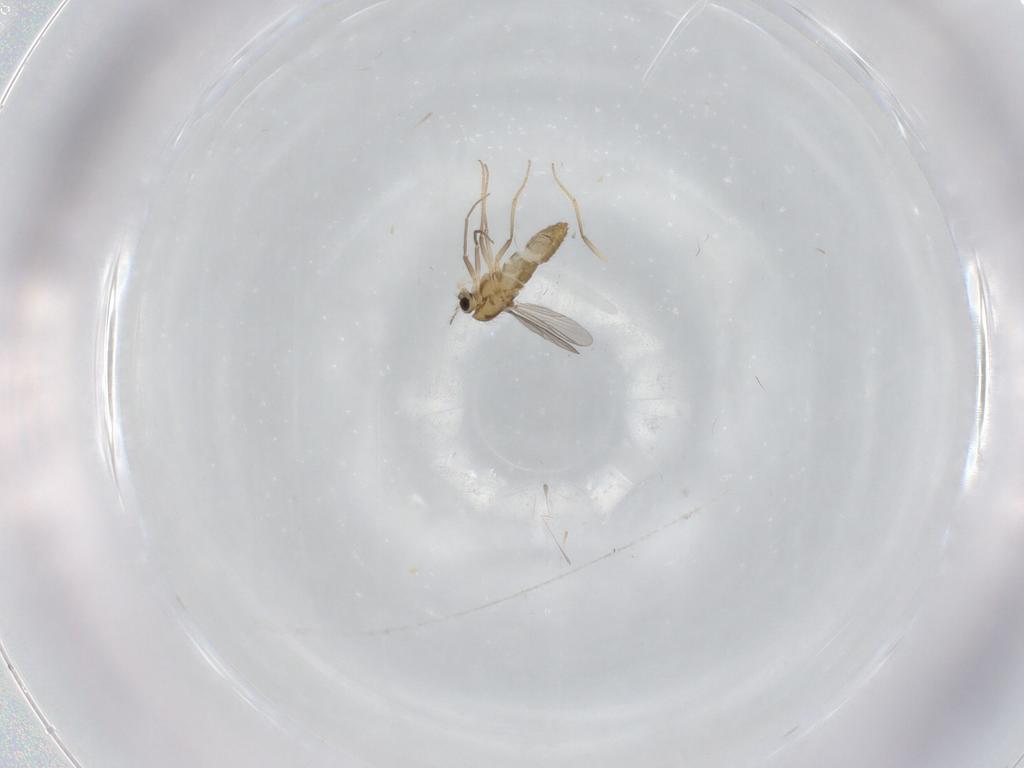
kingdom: Animalia
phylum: Arthropoda
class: Insecta
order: Diptera
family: Chironomidae
